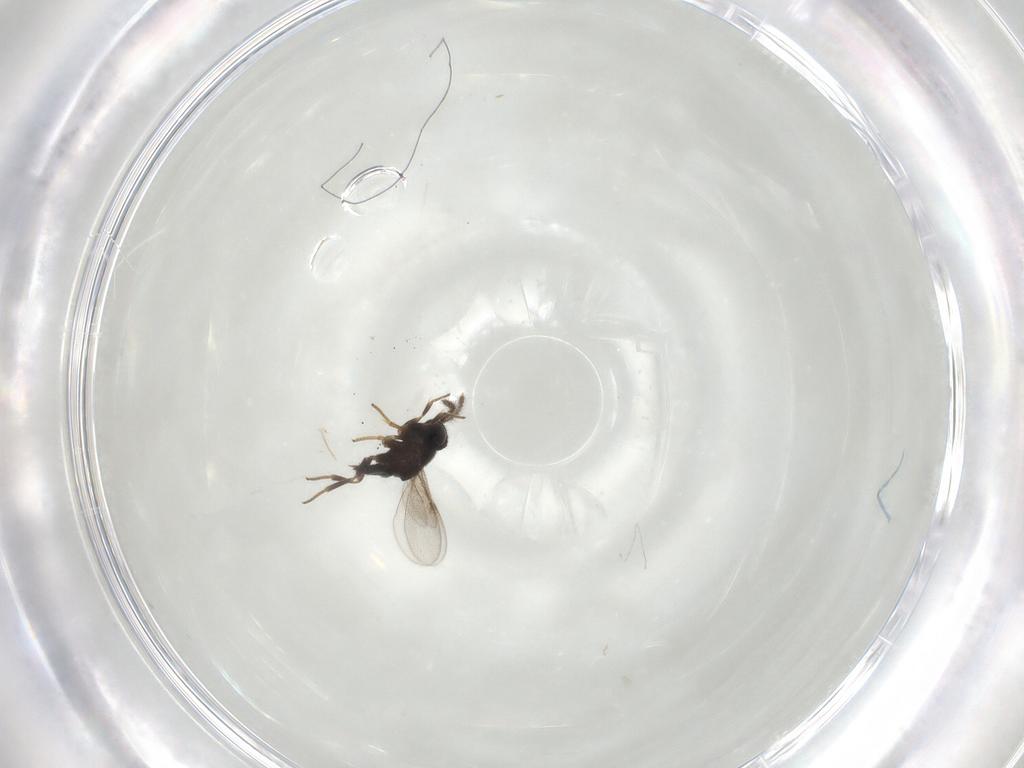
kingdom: Animalia
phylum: Arthropoda
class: Insecta
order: Hymenoptera
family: Encyrtidae
